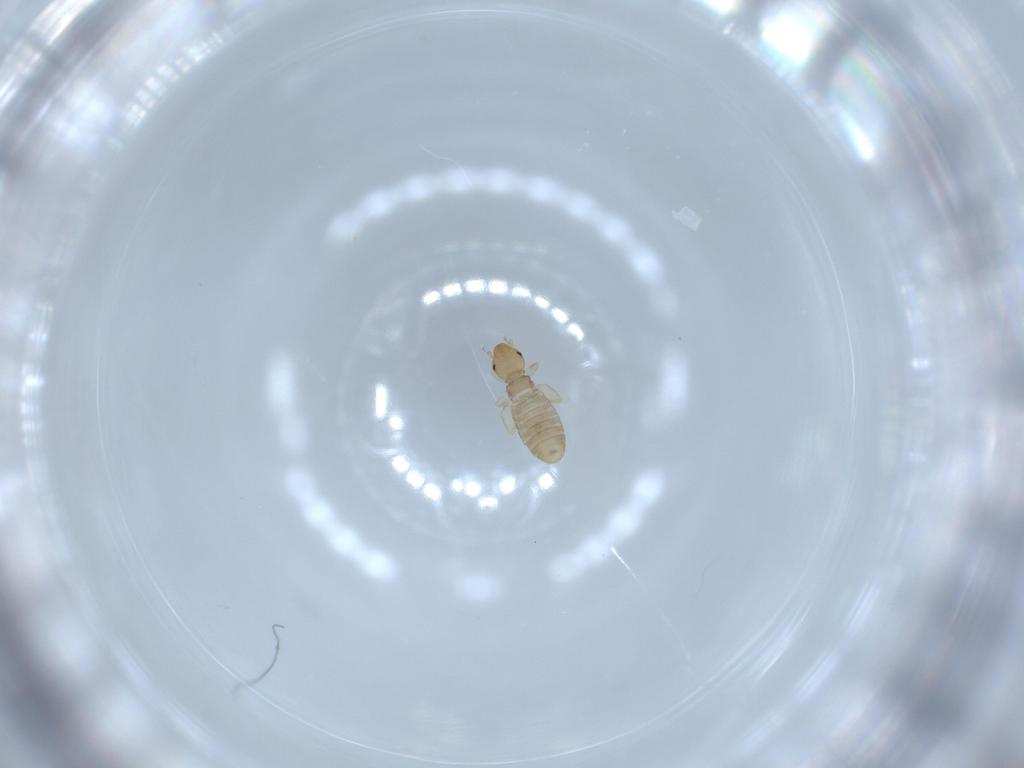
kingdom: Animalia
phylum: Arthropoda
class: Insecta
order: Psocodea
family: Liposcelididae
